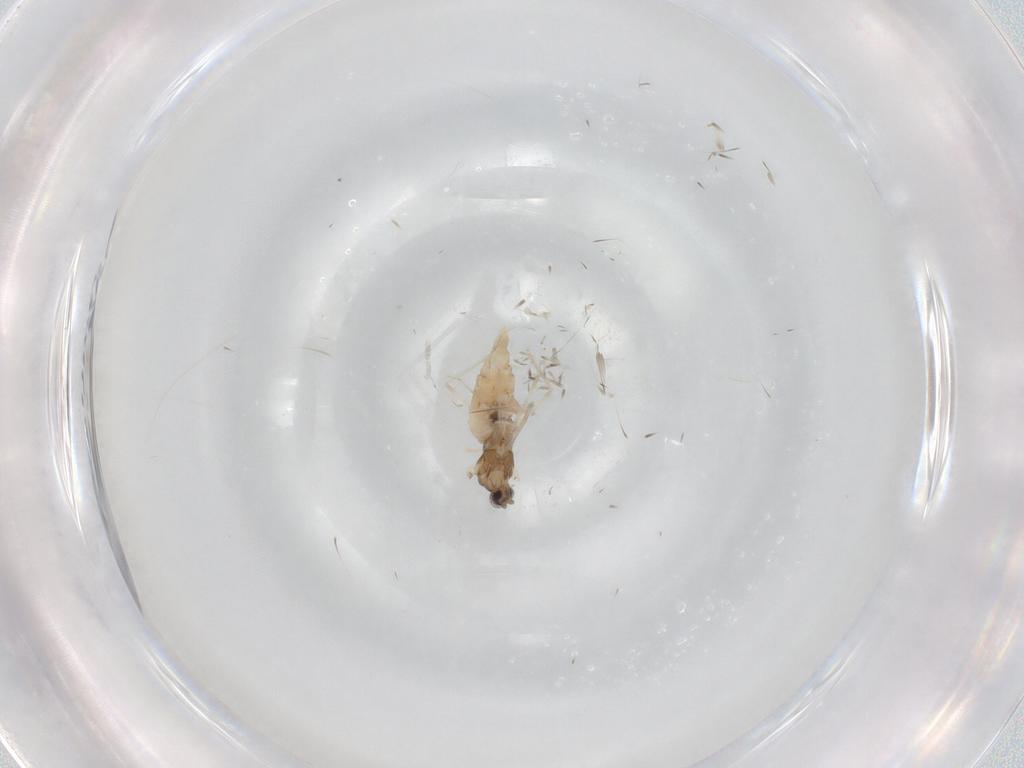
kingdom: Animalia
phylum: Arthropoda
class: Insecta
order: Diptera
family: Cecidomyiidae
